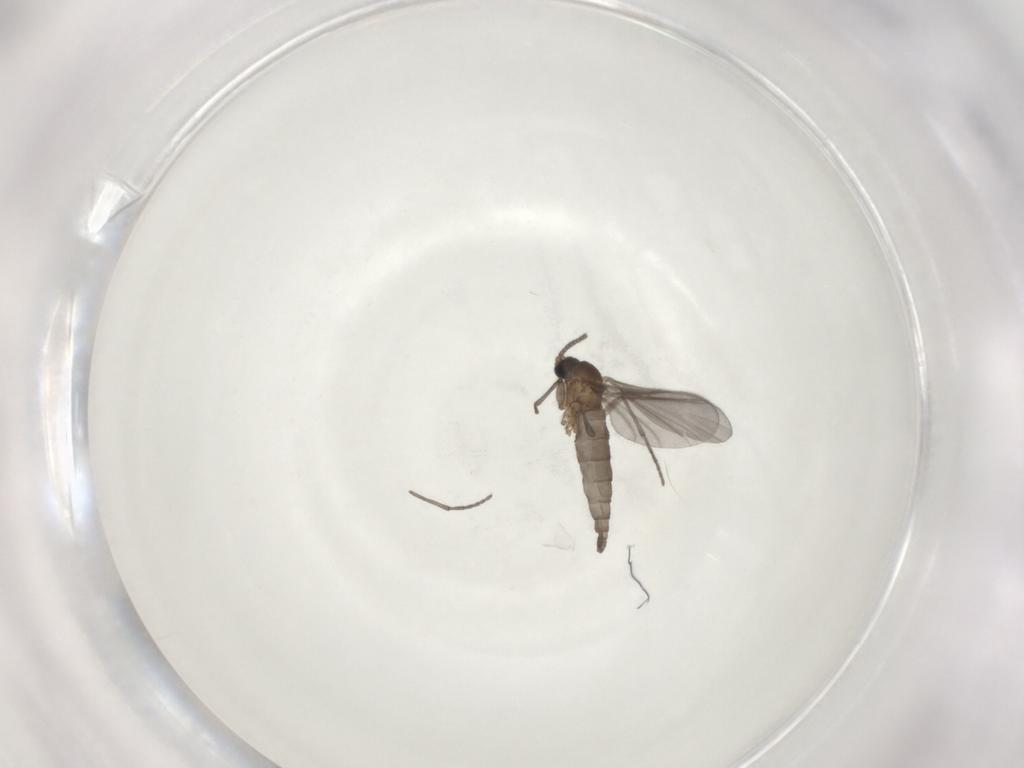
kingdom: Animalia
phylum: Arthropoda
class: Insecta
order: Diptera
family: Sciaridae
